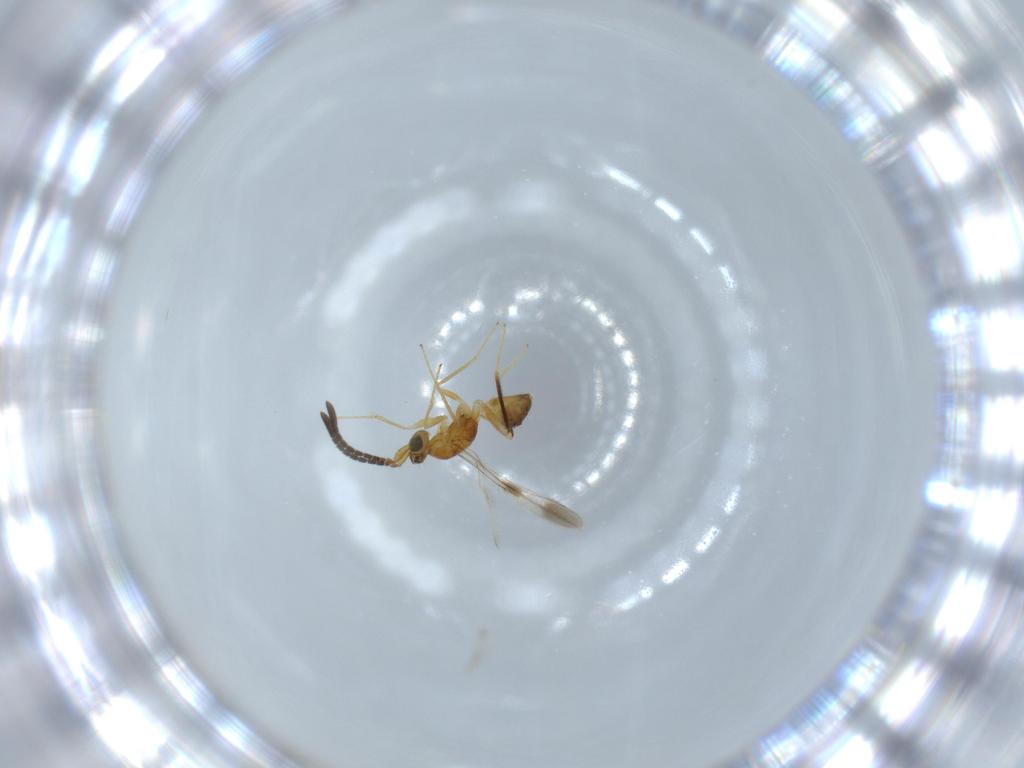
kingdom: Animalia
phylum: Arthropoda
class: Insecta
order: Hymenoptera
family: Mymaridae
